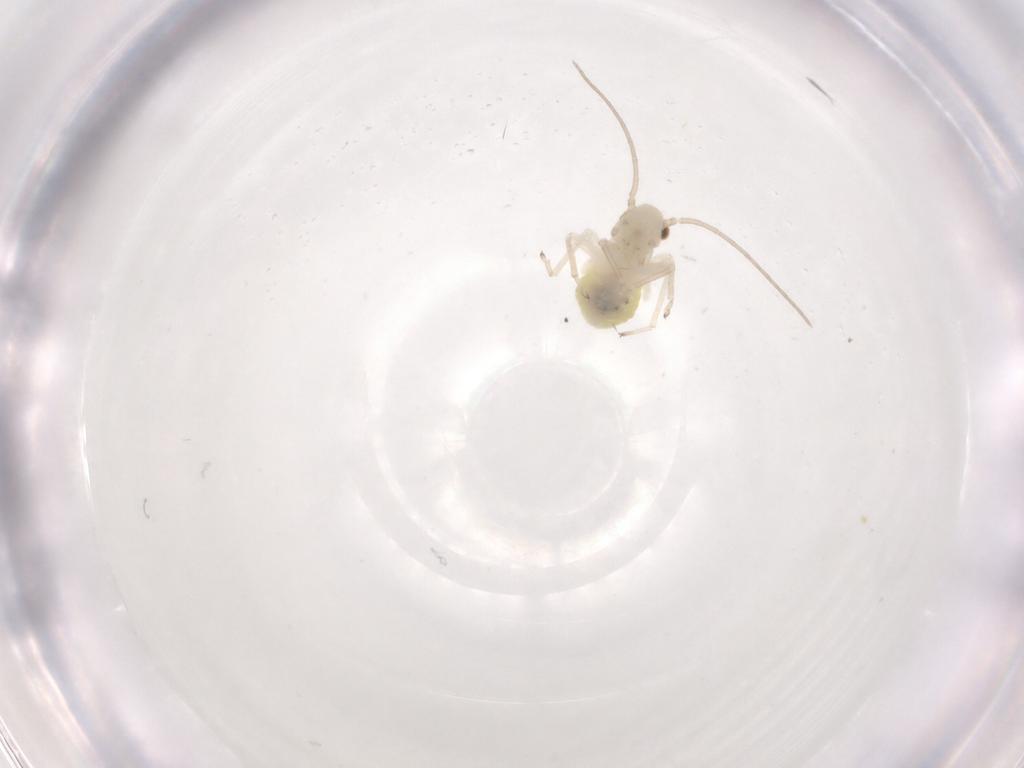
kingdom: Animalia
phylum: Arthropoda
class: Insecta
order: Psocodea
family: Caeciliusidae
